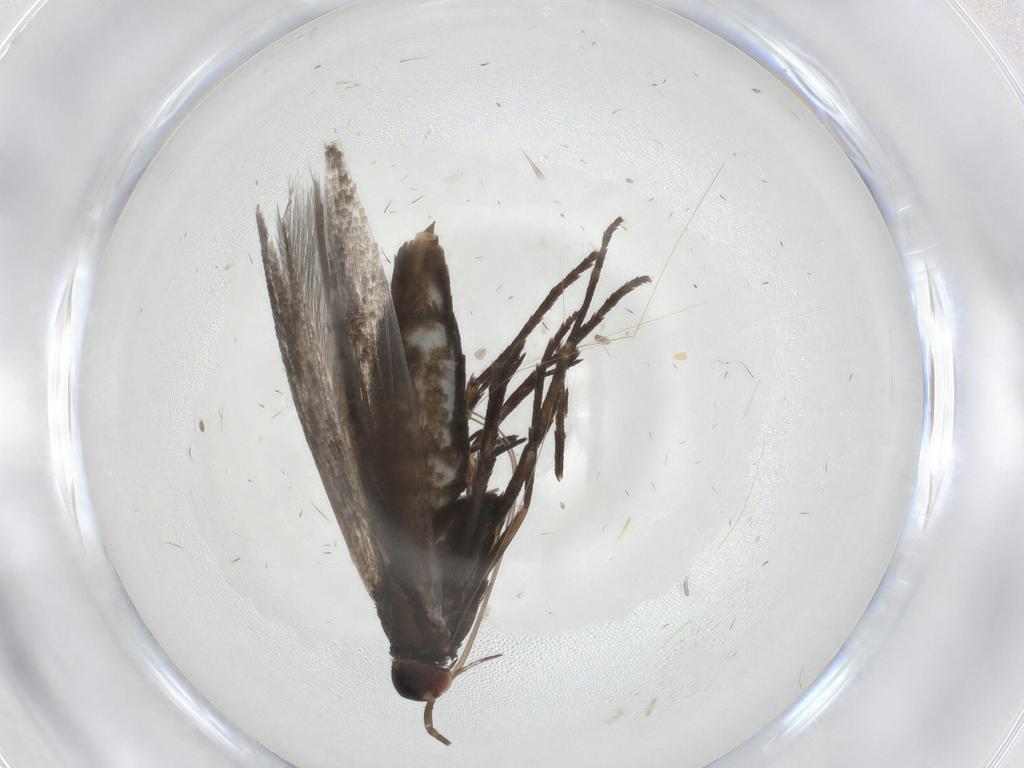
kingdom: Animalia
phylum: Arthropoda
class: Insecta
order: Lepidoptera
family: Coleophoridae
